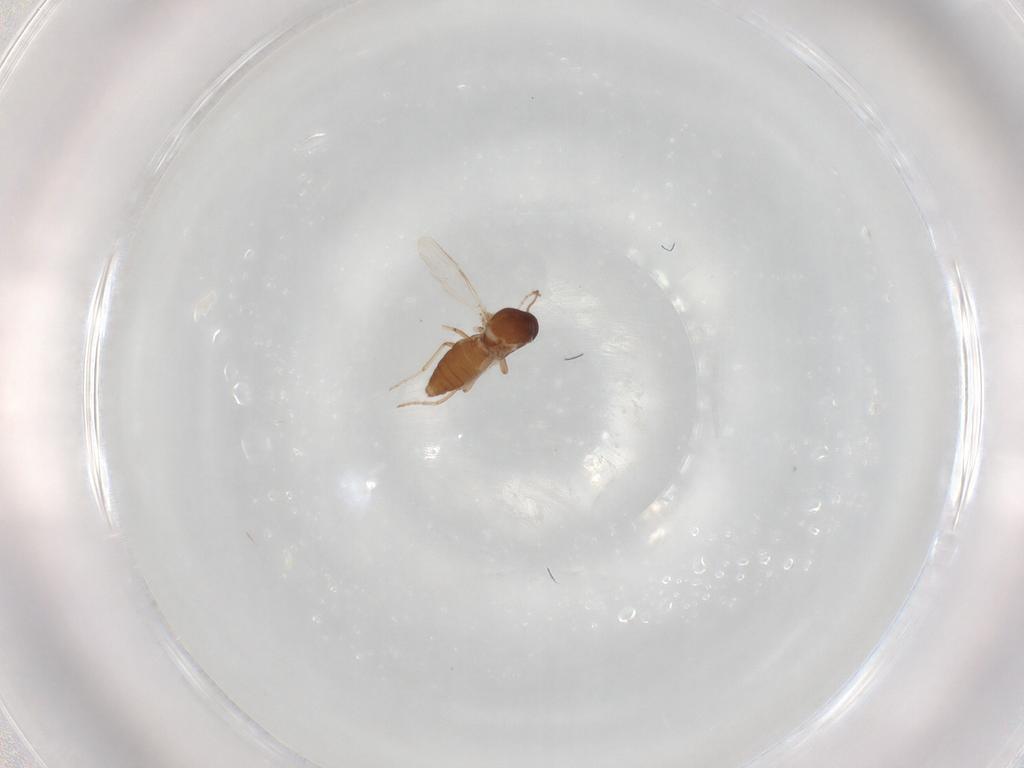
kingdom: Animalia
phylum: Arthropoda
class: Insecta
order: Diptera
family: Ceratopogonidae
